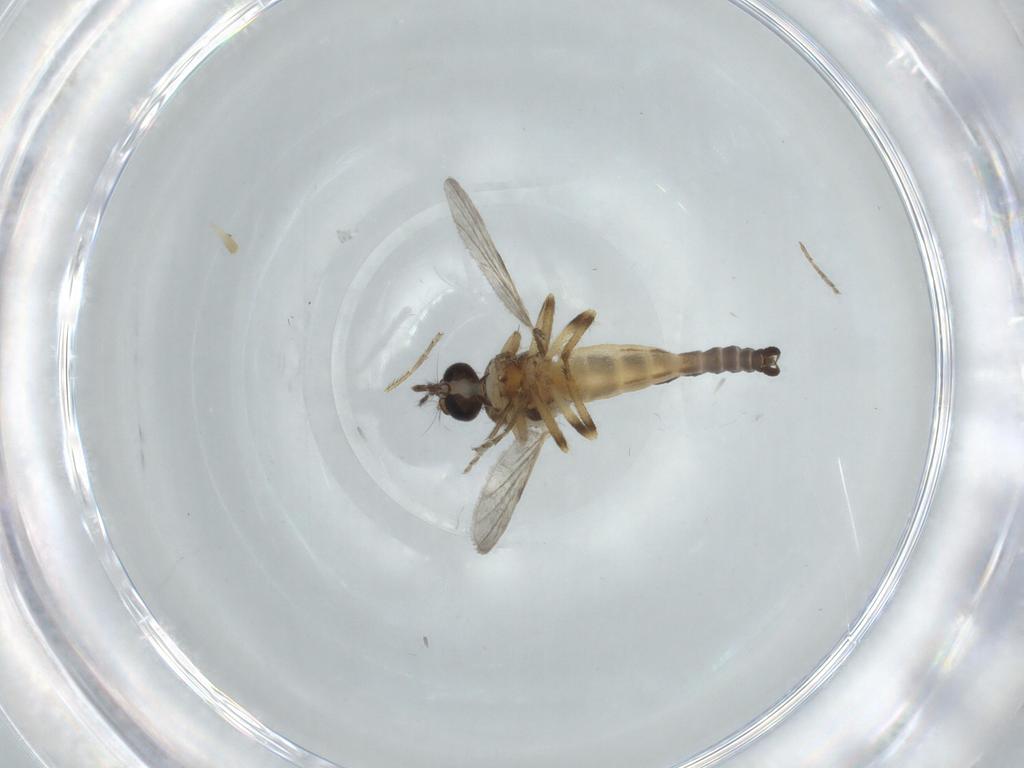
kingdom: Animalia
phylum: Arthropoda
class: Insecta
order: Diptera
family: Ceratopogonidae
